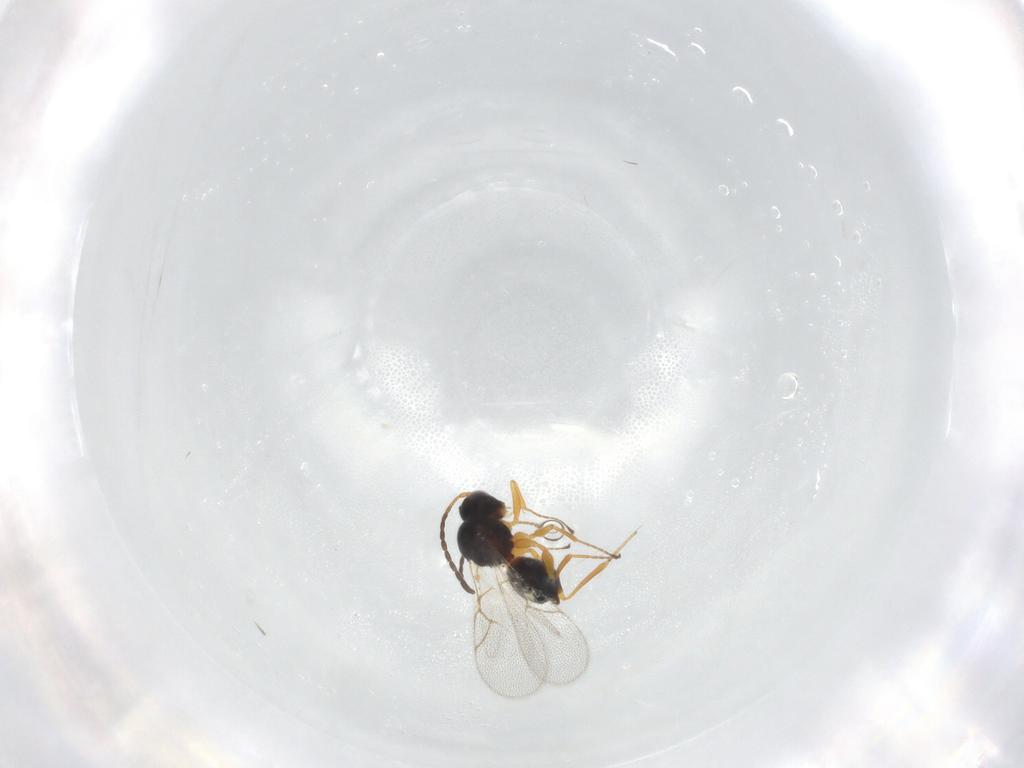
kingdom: Animalia
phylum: Arthropoda
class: Insecta
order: Hymenoptera
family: Figitidae
